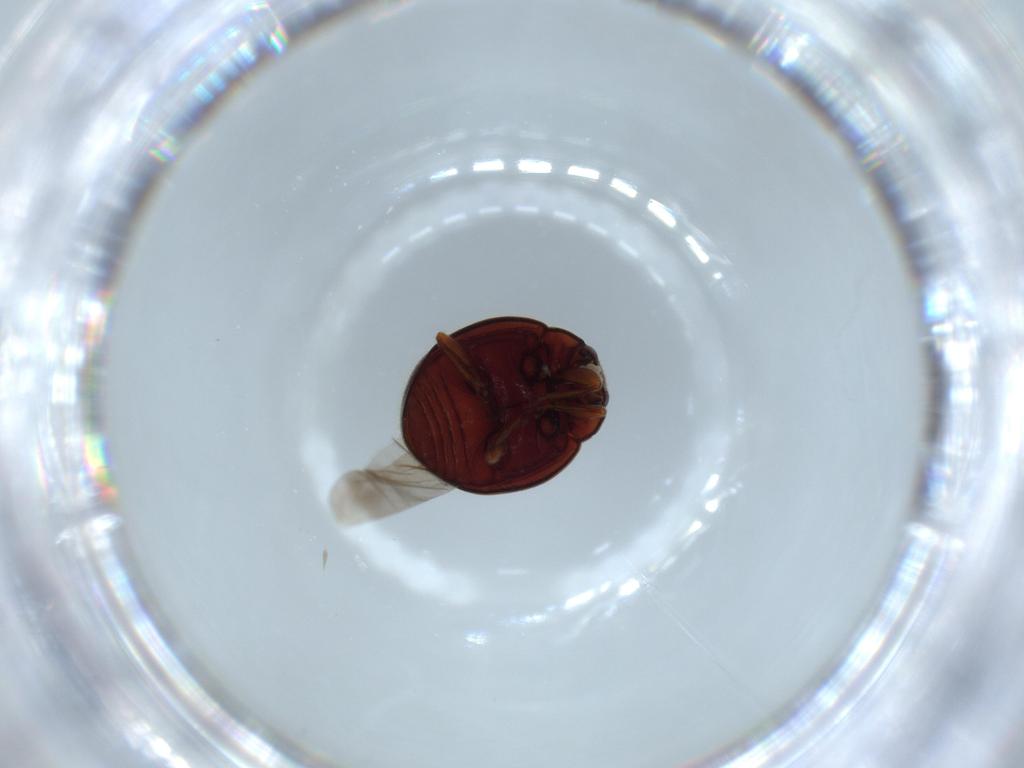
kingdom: Animalia
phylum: Arthropoda
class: Insecta
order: Coleoptera
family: Coccinellidae
